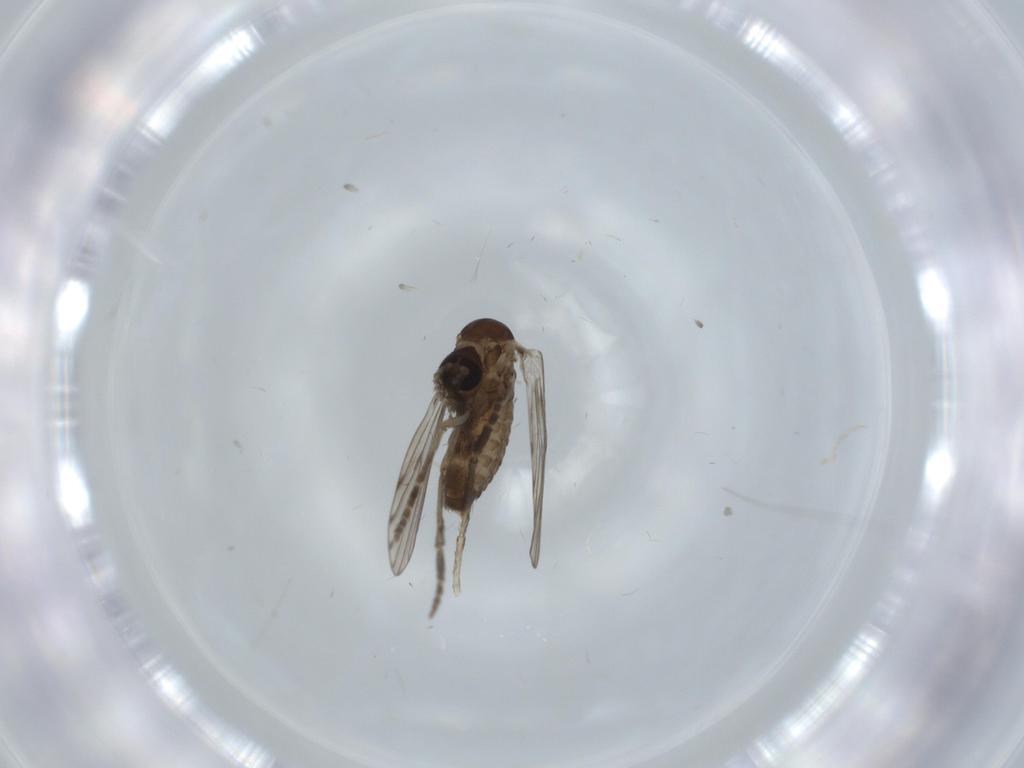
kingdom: Animalia
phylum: Arthropoda
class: Insecta
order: Diptera
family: Psychodidae
